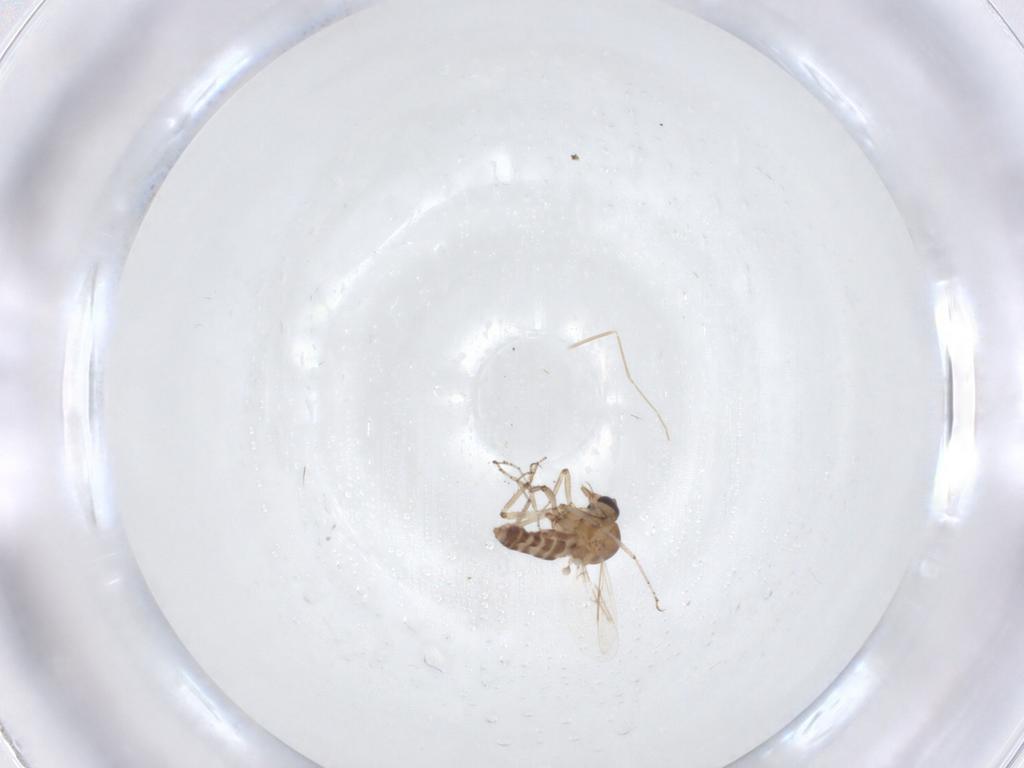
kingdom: Animalia
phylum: Arthropoda
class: Insecta
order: Diptera
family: Ceratopogonidae
